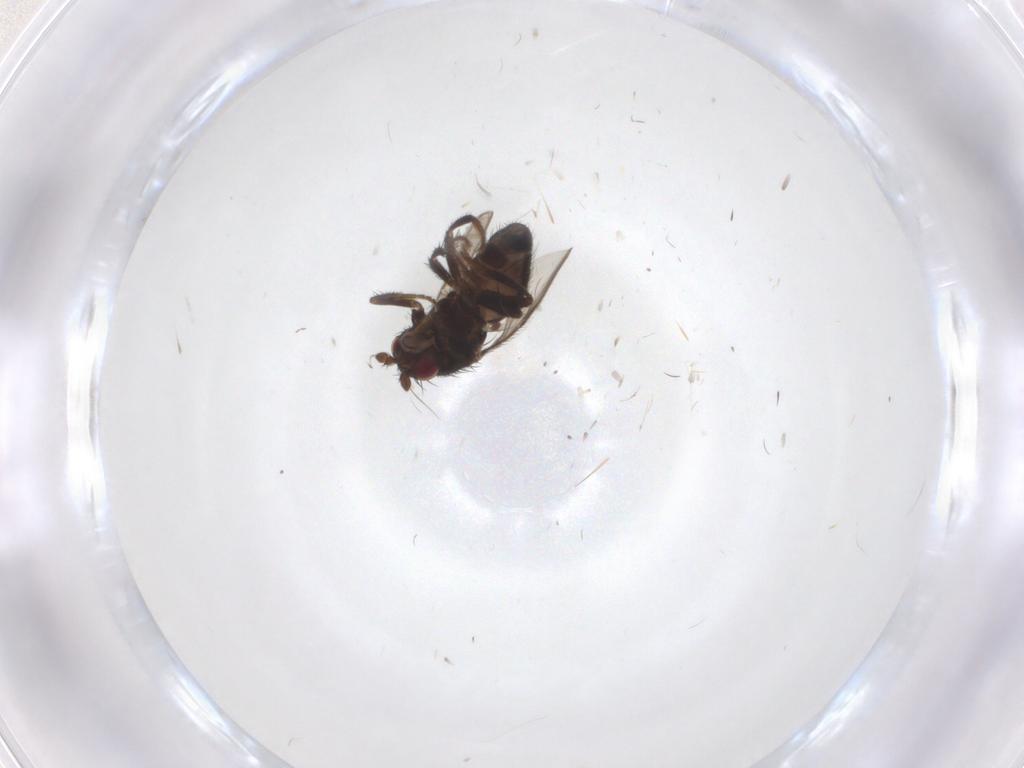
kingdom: Animalia
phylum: Arthropoda
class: Insecta
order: Diptera
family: Sphaeroceridae
